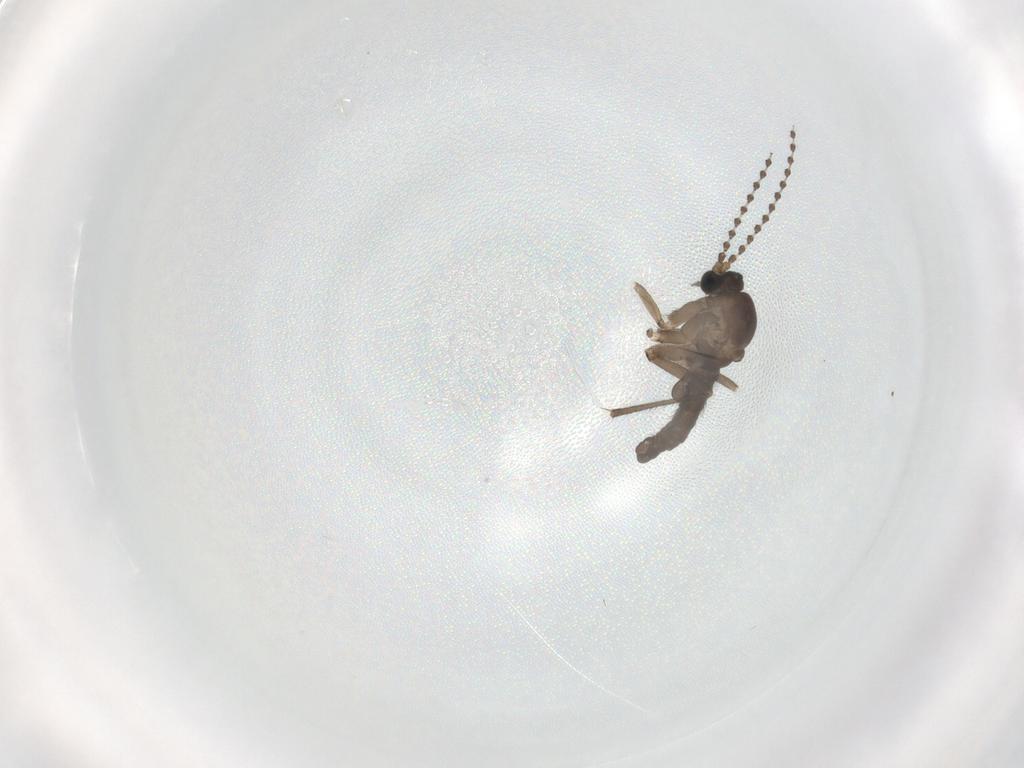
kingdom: Animalia
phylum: Arthropoda
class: Insecta
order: Diptera
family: Sciaridae
